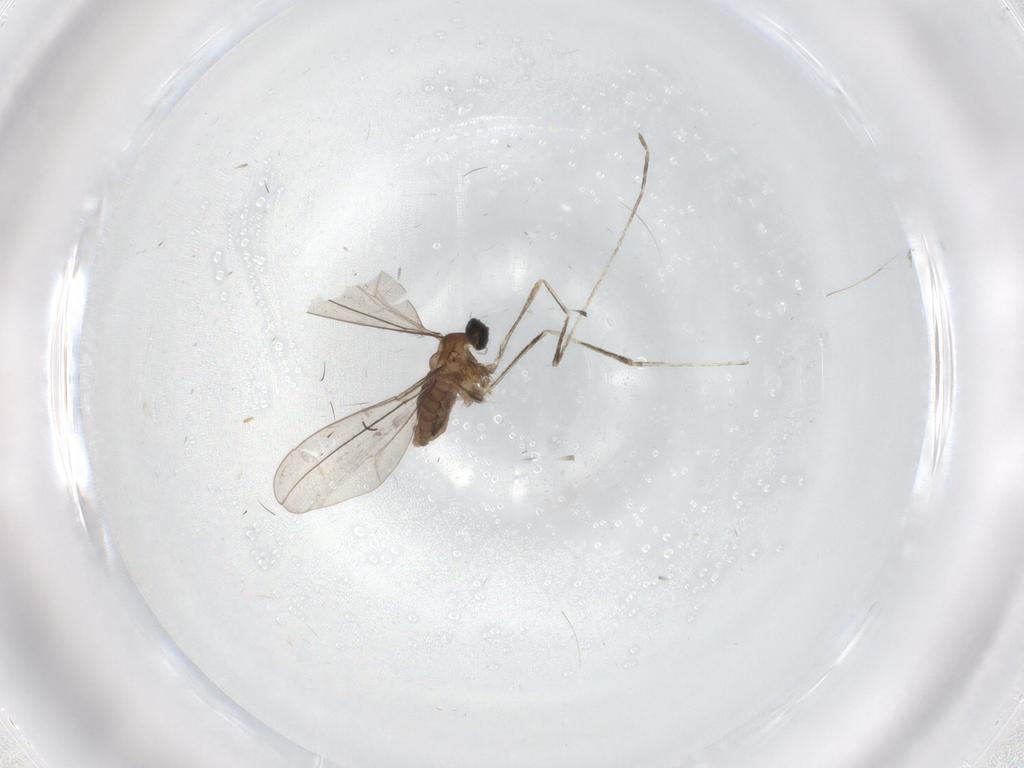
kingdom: Animalia
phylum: Arthropoda
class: Insecta
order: Diptera
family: Cecidomyiidae
